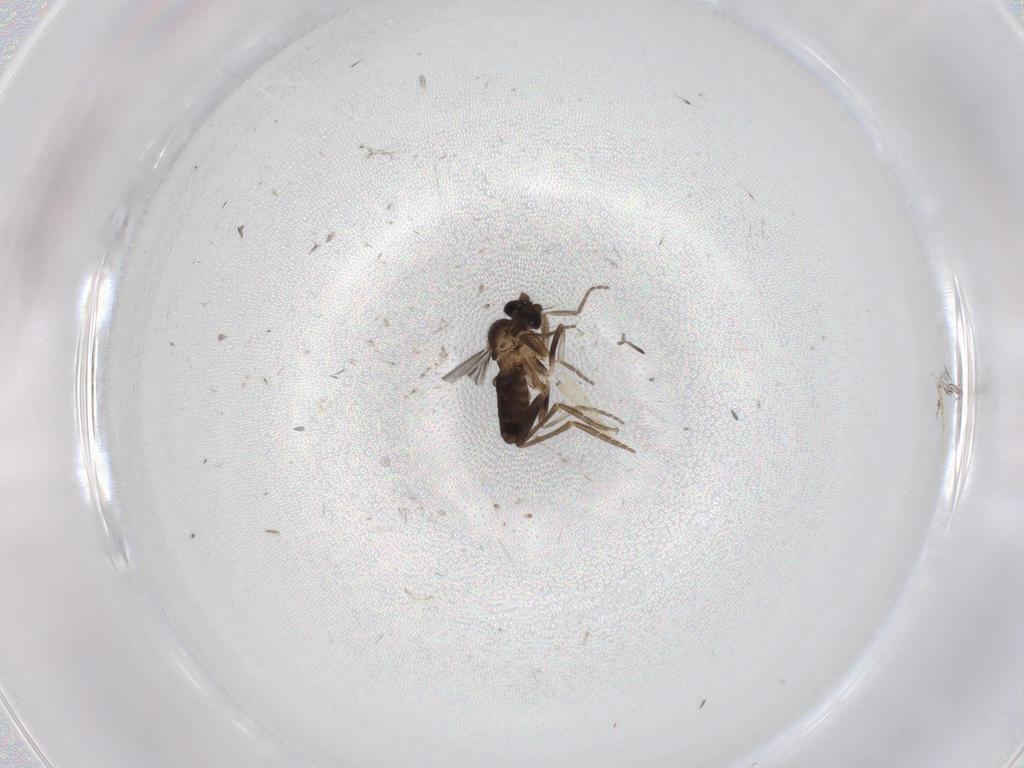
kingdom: Animalia
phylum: Arthropoda
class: Insecta
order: Diptera
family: Phoridae
